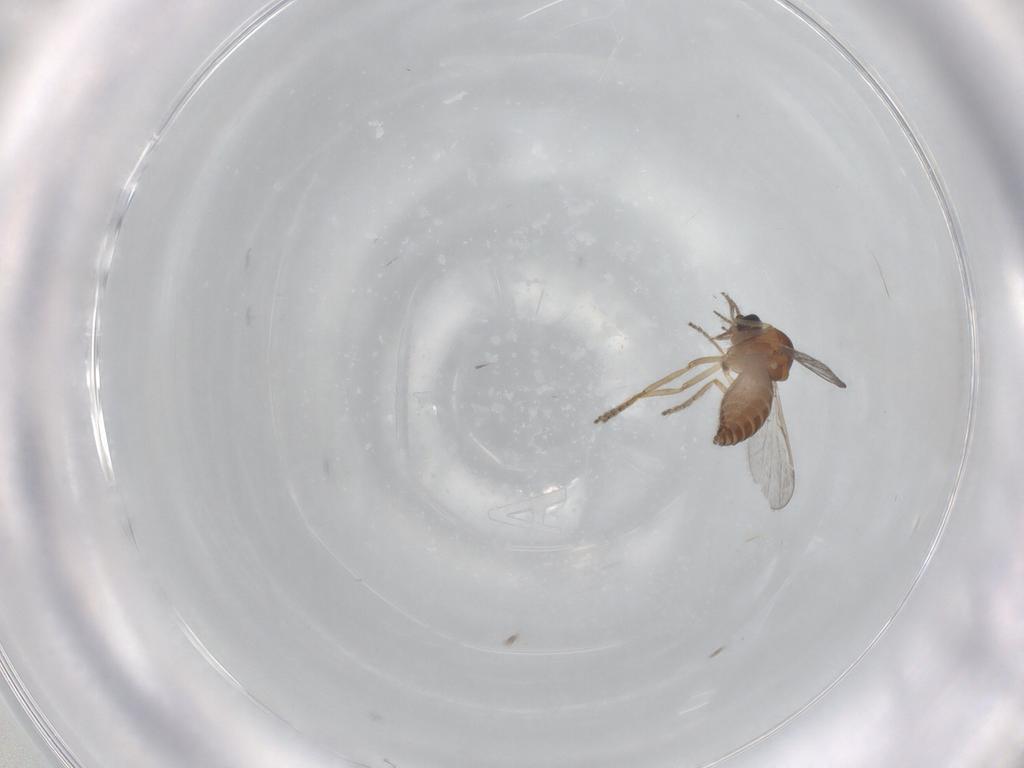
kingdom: Animalia
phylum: Arthropoda
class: Insecta
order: Diptera
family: Ceratopogonidae
